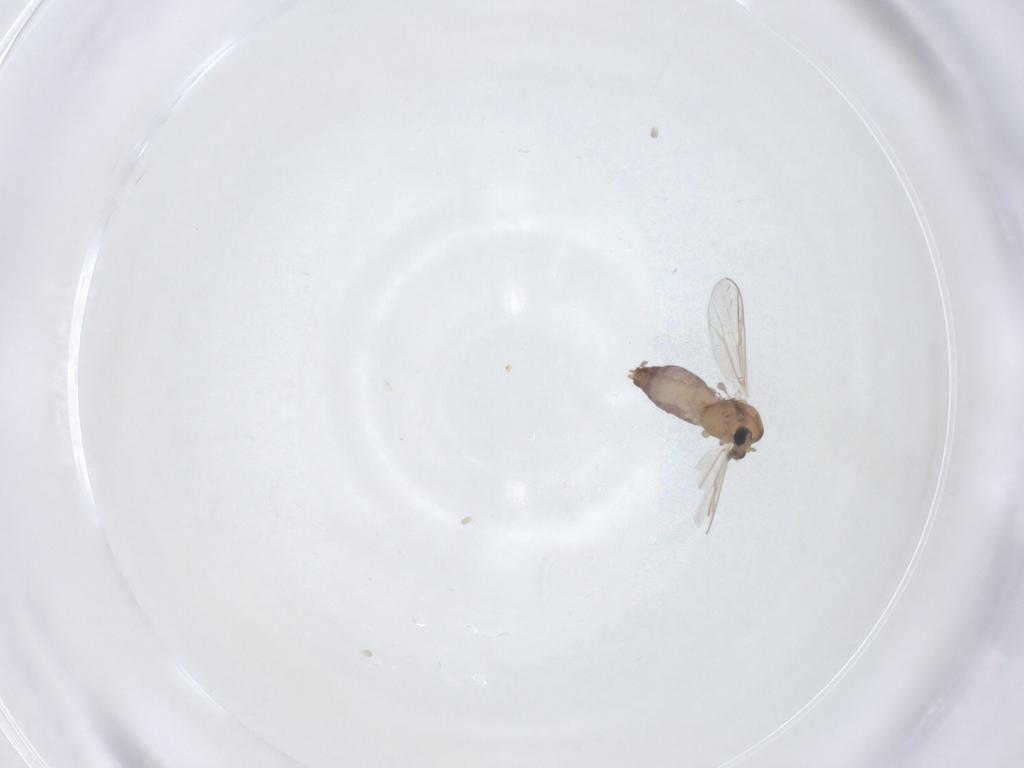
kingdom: Animalia
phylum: Arthropoda
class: Insecta
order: Diptera
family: Chironomidae
